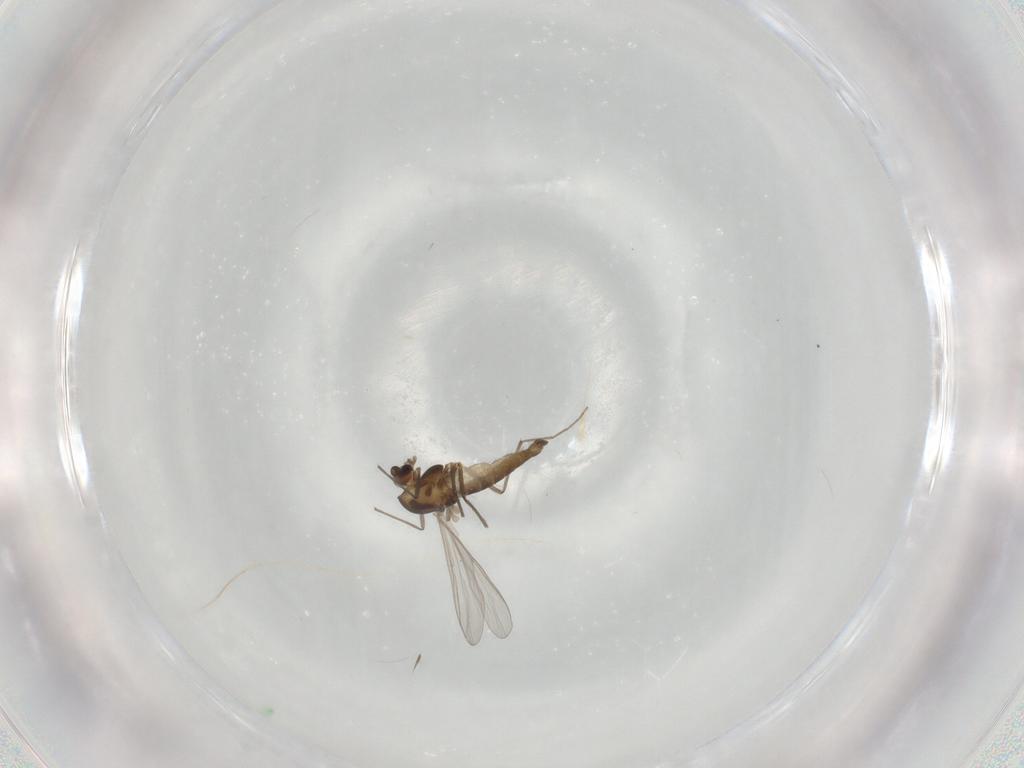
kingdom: Animalia
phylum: Arthropoda
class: Insecta
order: Diptera
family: Chironomidae
